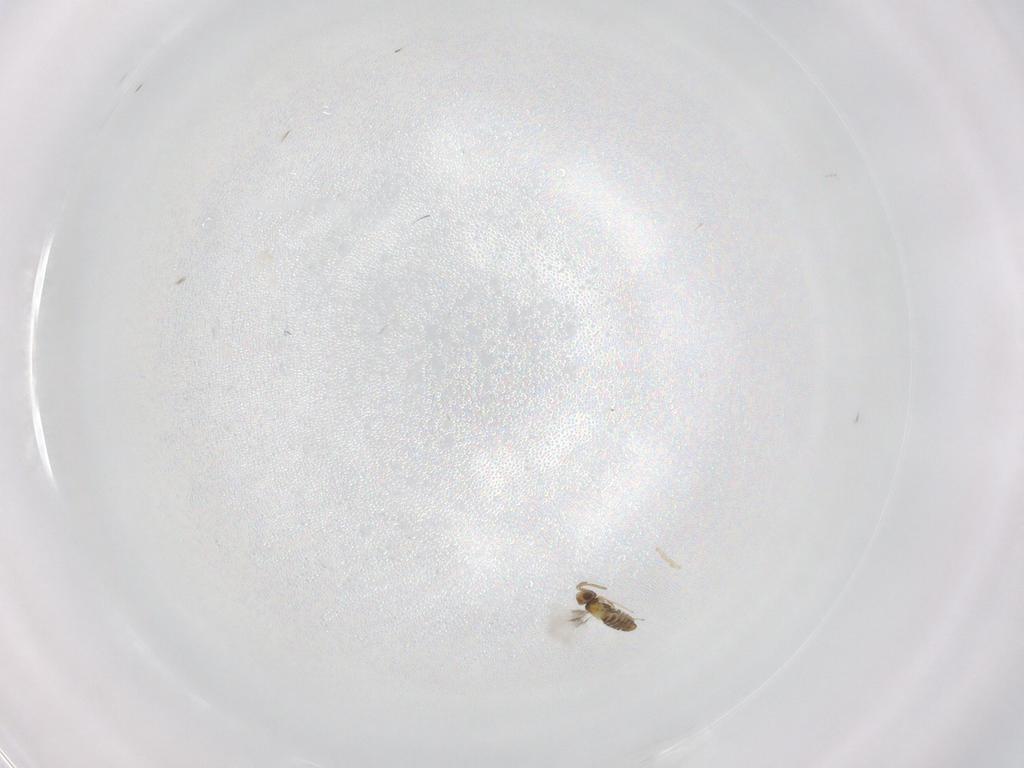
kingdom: Animalia
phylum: Arthropoda
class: Insecta
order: Hymenoptera
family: Aphelinidae
